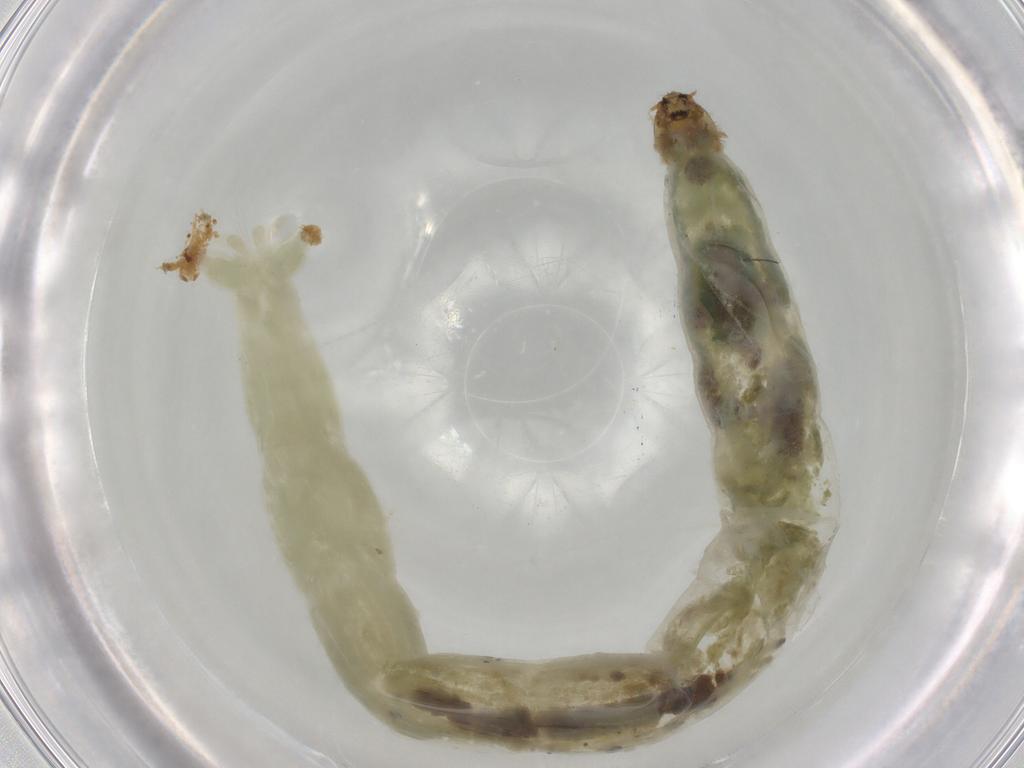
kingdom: Animalia
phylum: Arthropoda
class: Insecta
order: Diptera
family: Chironomidae
